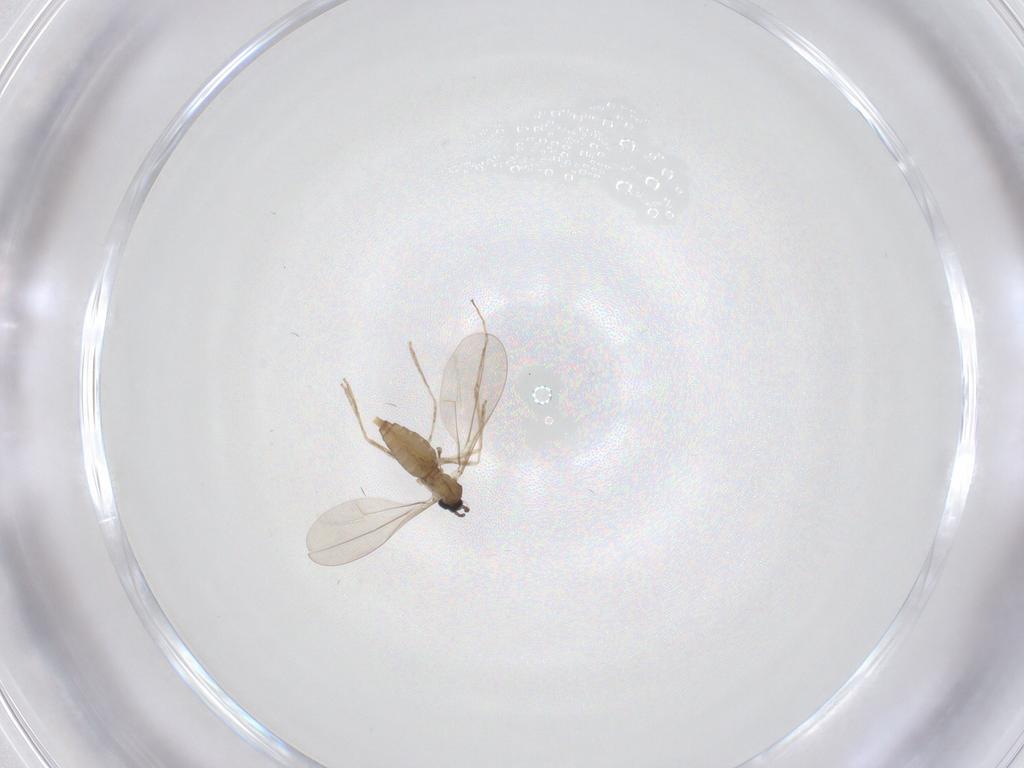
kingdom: Animalia
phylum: Arthropoda
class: Insecta
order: Diptera
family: Cecidomyiidae
